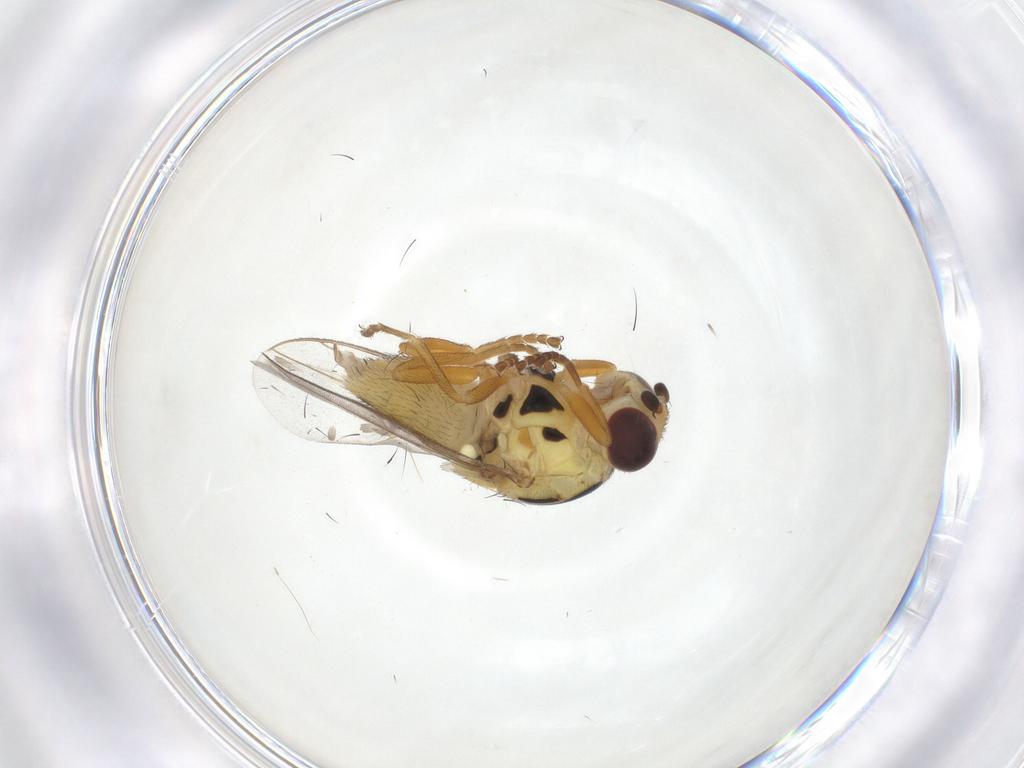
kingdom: Animalia
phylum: Arthropoda
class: Insecta
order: Diptera
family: Chloropidae
